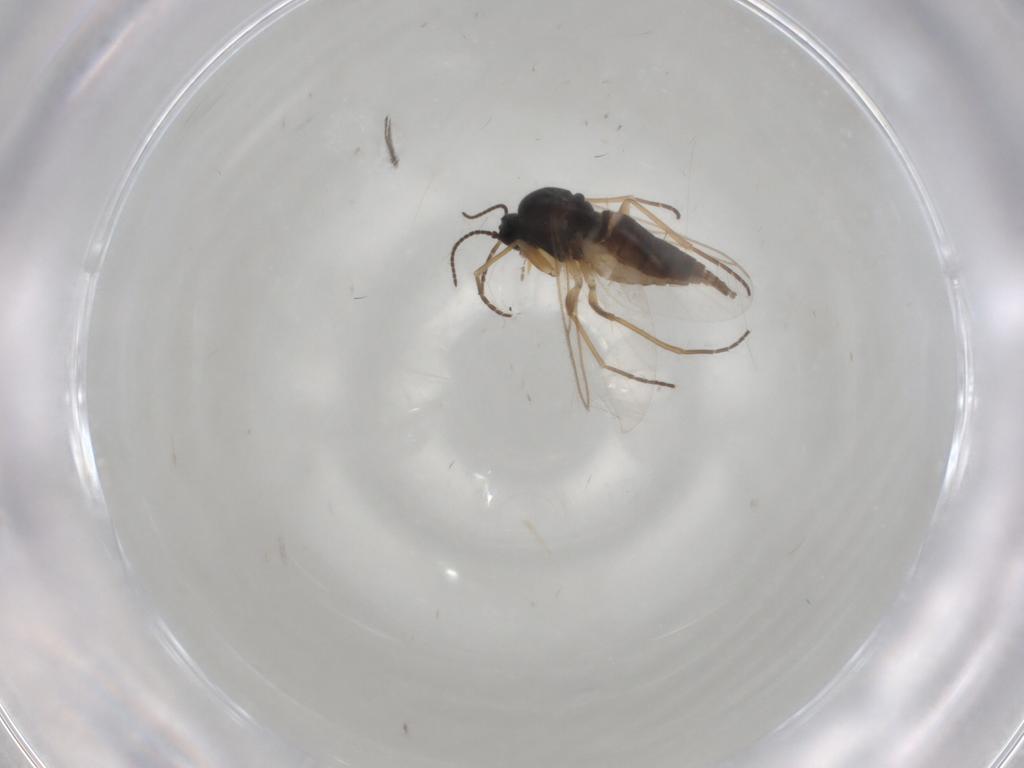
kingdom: Animalia
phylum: Arthropoda
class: Insecta
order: Diptera
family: Sciaridae
